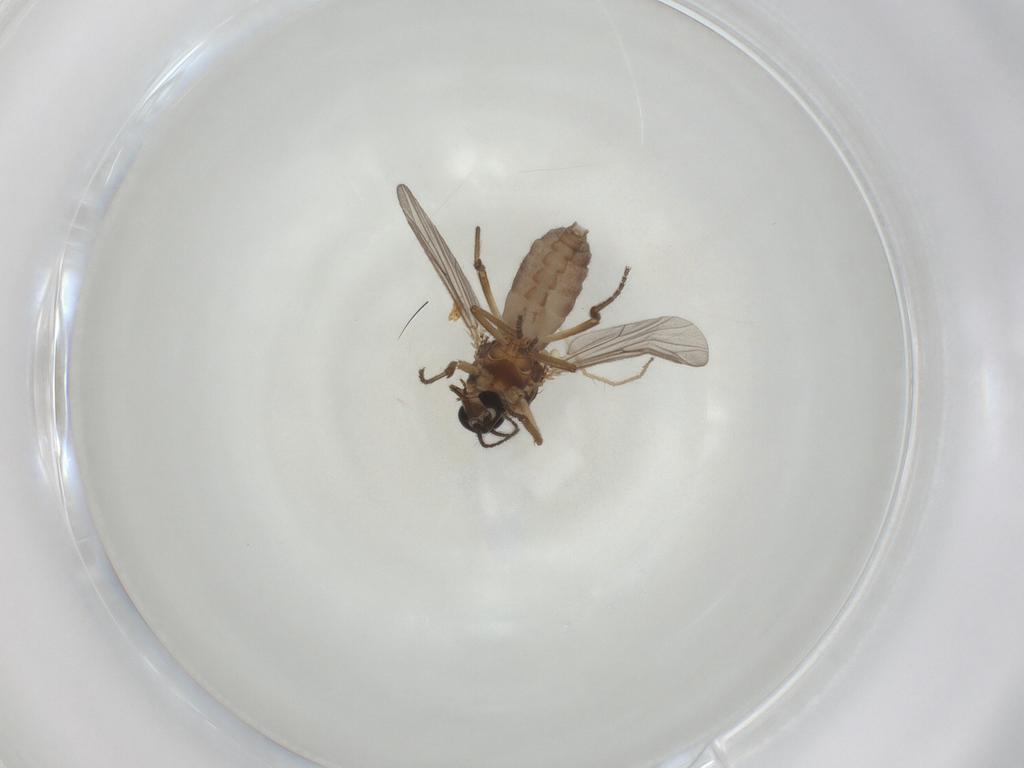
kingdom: Animalia
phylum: Arthropoda
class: Insecta
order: Diptera
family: Ceratopogonidae
